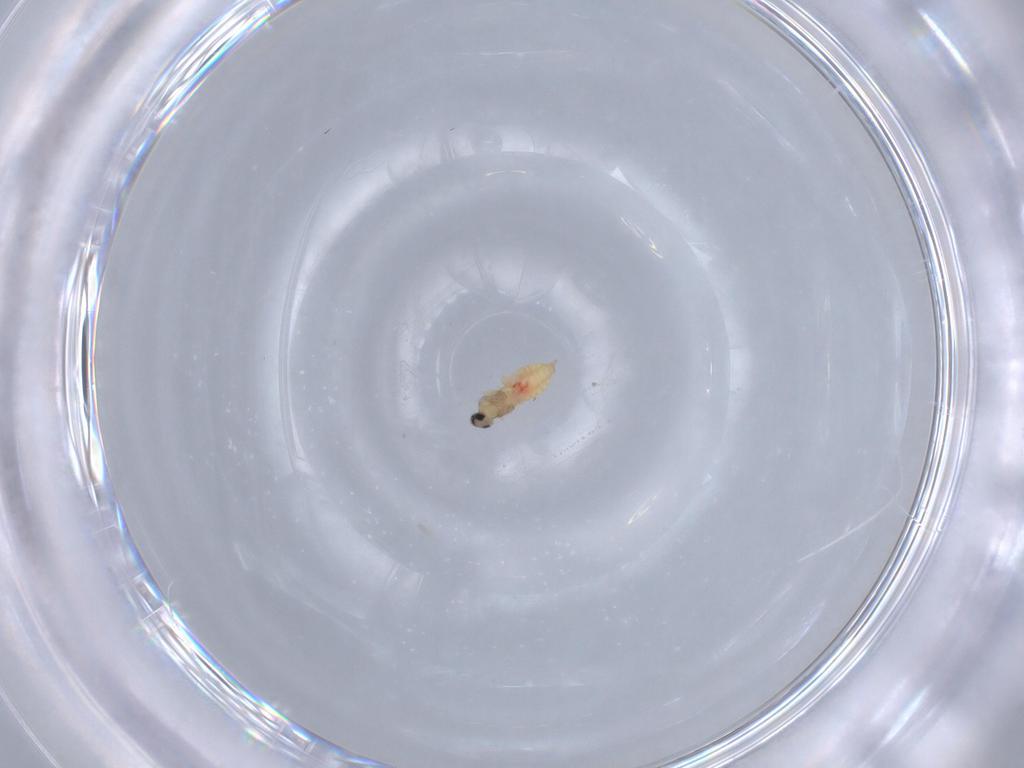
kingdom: Animalia
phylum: Arthropoda
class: Insecta
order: Diptera
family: Cecidomyiidae
